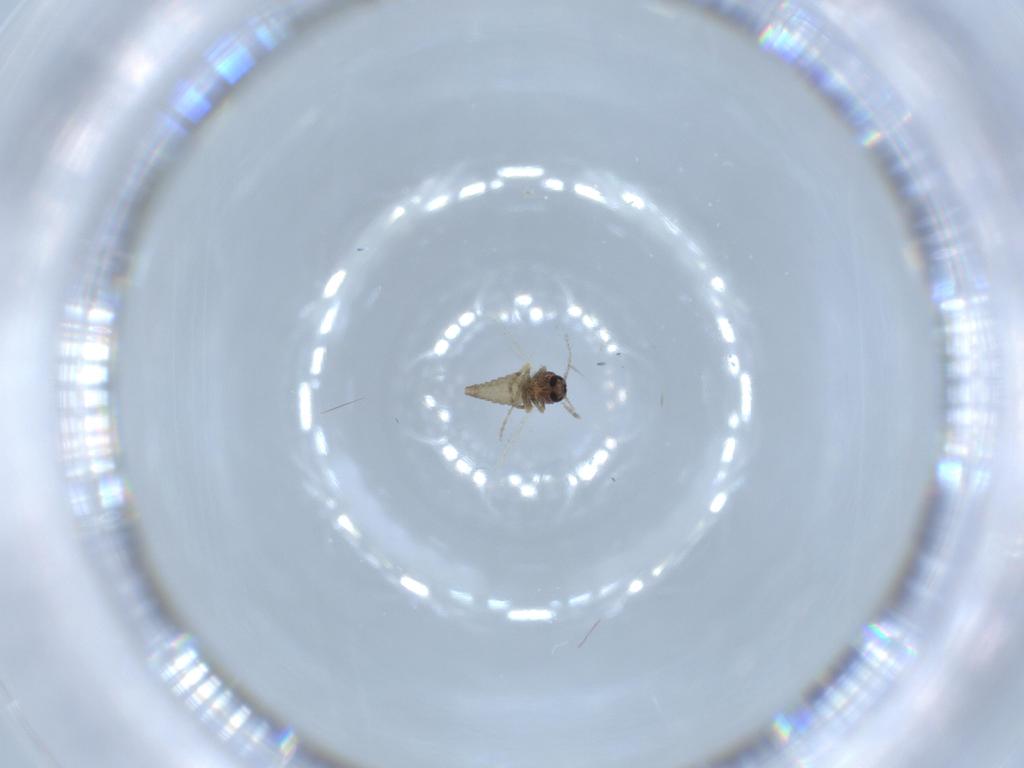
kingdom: Animalia
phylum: Arthropoda
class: Insecta
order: Diptera
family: Ceratopogonidae
